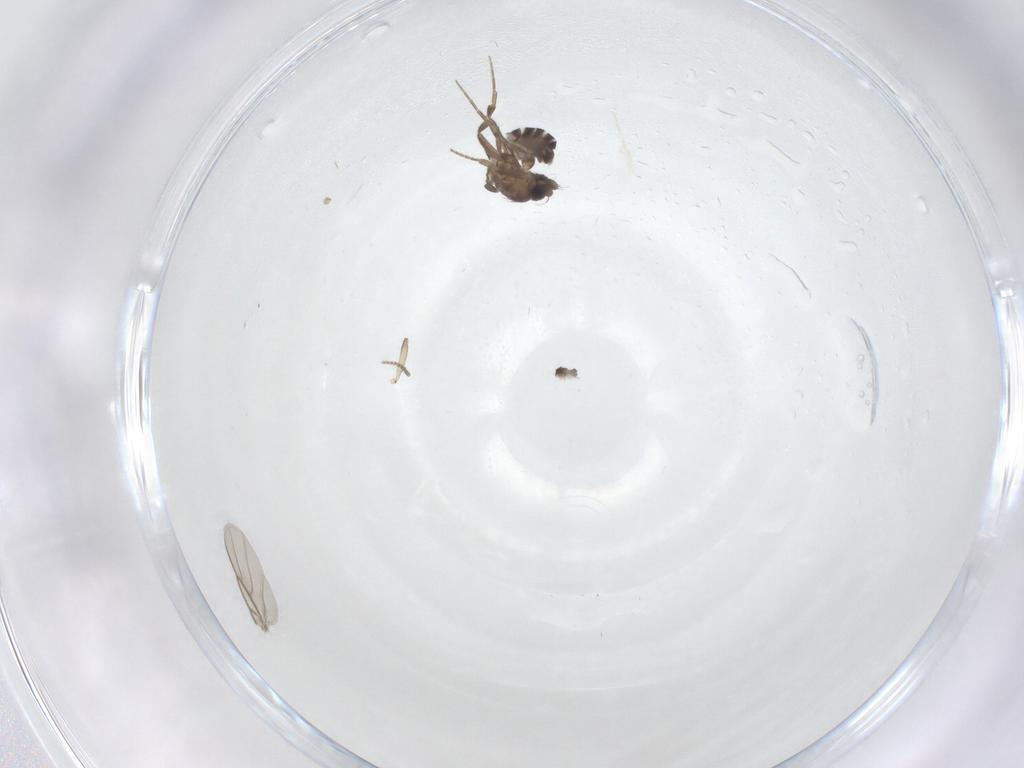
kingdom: Animalia
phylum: Arthropoda
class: Insecta
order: Diptera
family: Phoridae
